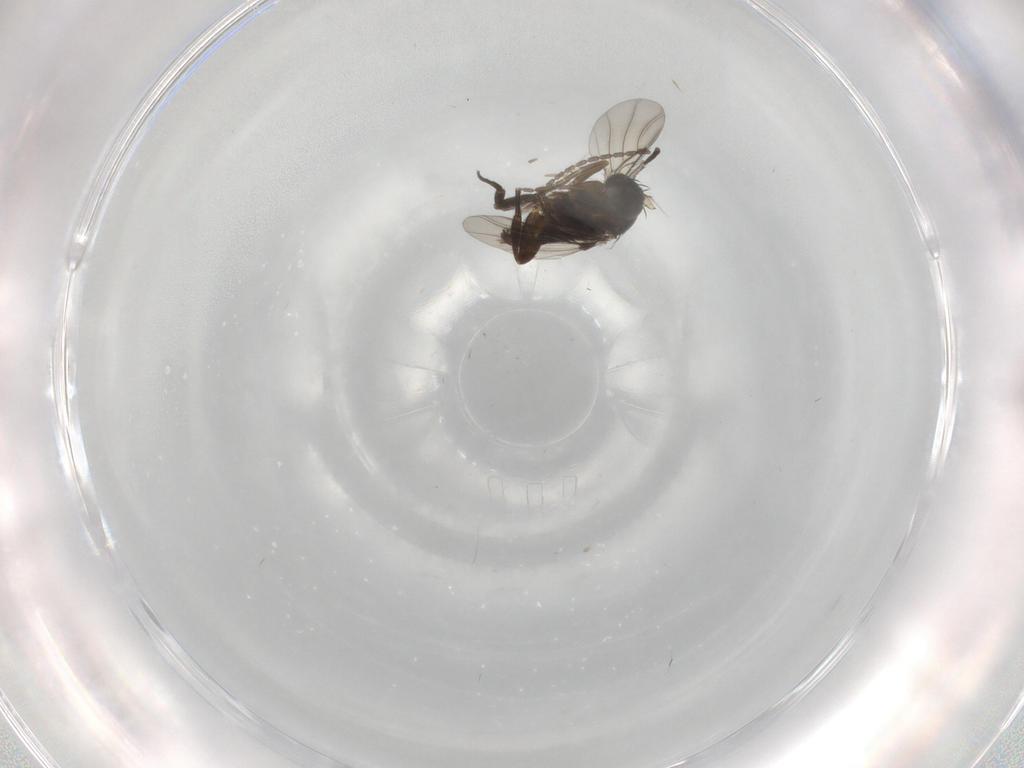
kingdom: Animalia
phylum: Arthropoda
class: Insecta
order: Diptera
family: Cecidomyiidae
